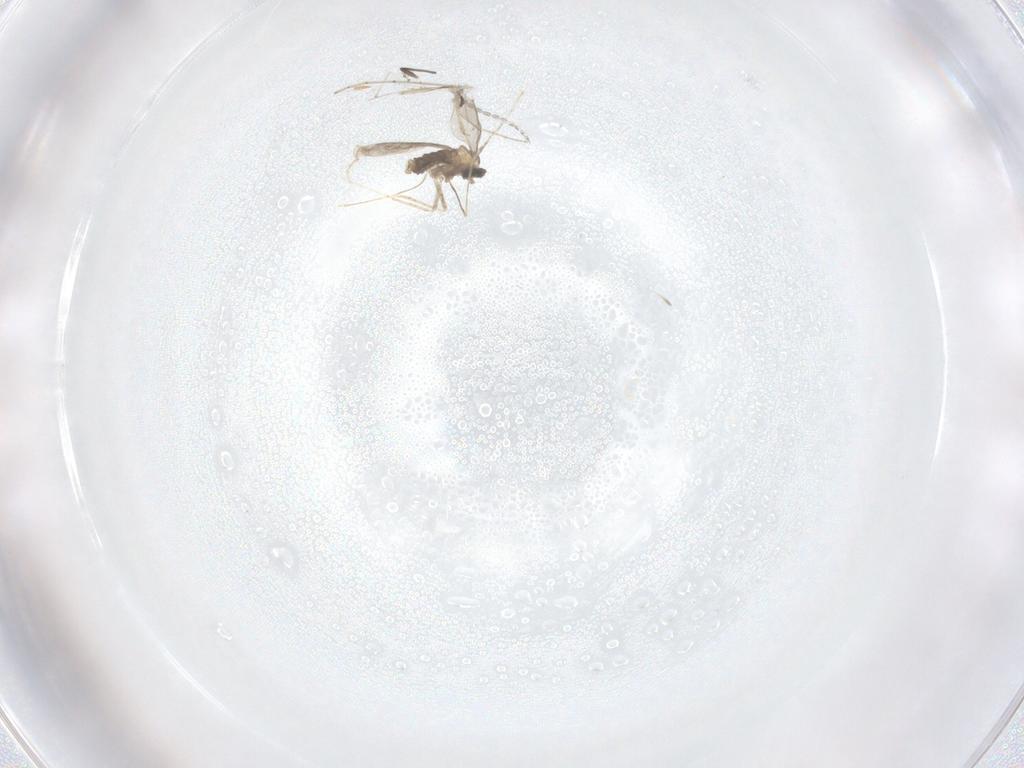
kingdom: Animalia
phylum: Arthropoda
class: Insecta
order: Diptera
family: Cecidomyiidae
